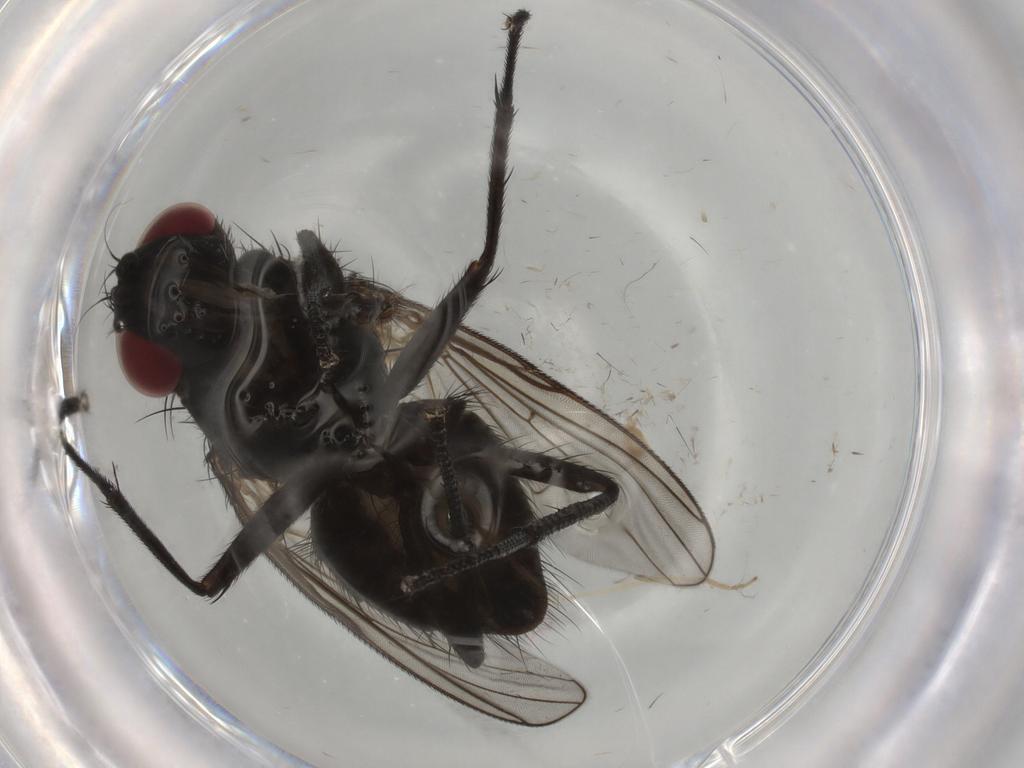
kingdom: Animalia
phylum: Arthropoda
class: Insecta
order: Diptera
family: Muscidae
